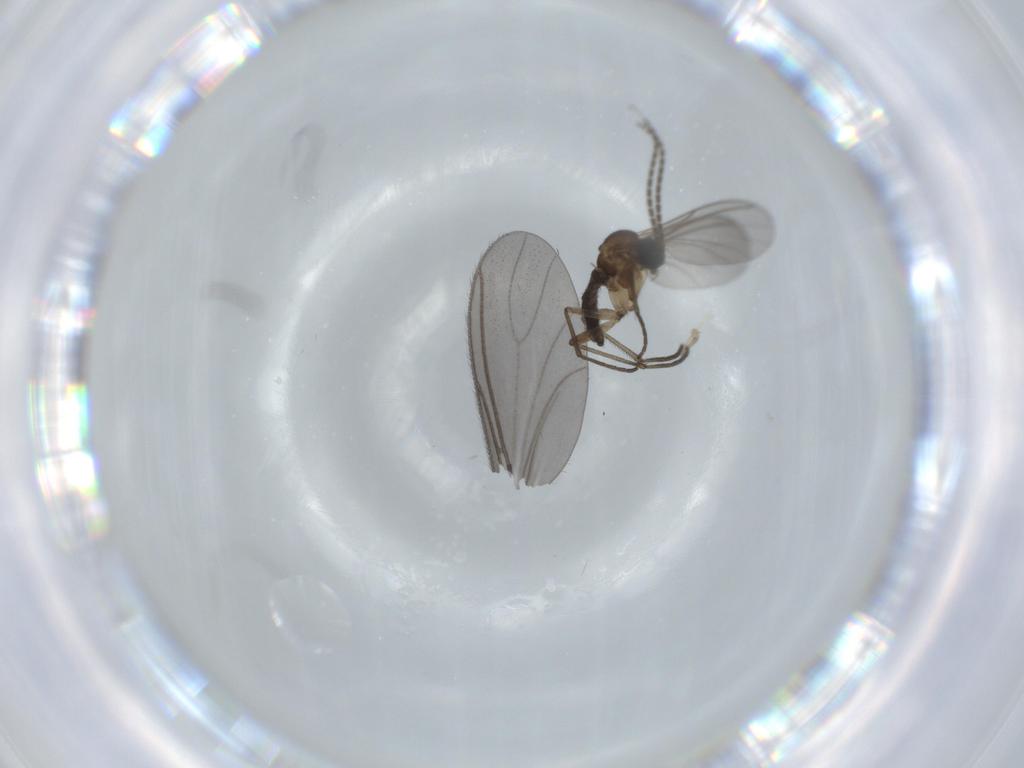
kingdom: Animalia
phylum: Arthropoda
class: Insecta
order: Diptera
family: Sciaridae
